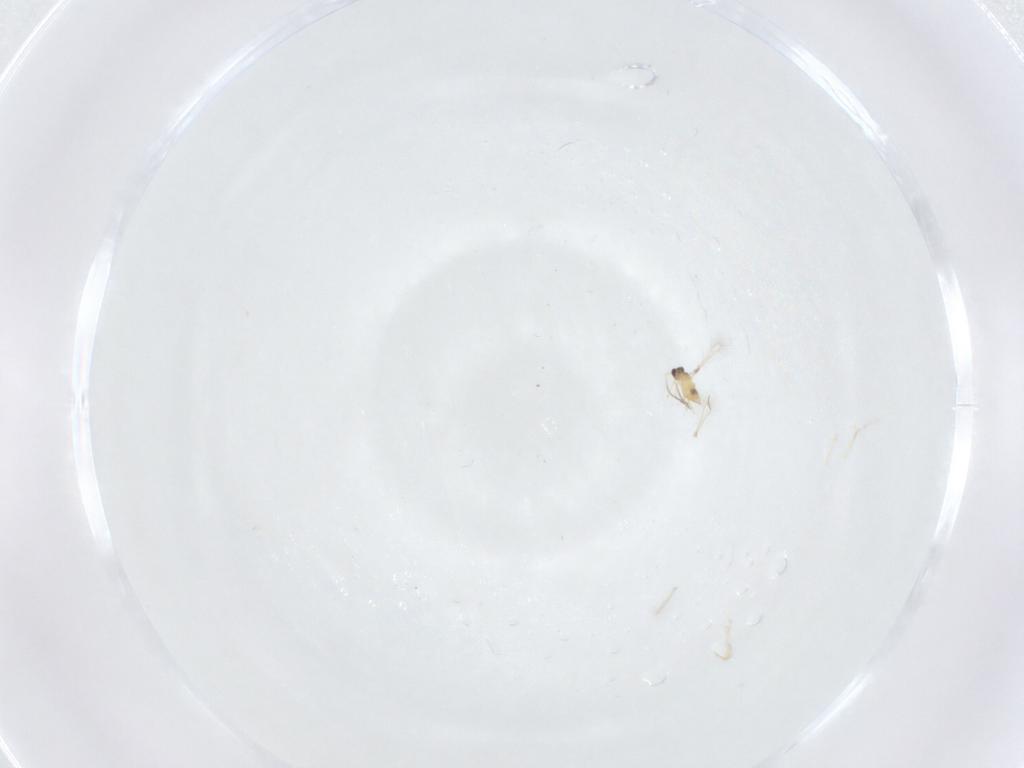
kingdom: Animalia
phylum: Arthropoda
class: Insecta
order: Hymenoptera
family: Mymaridae
